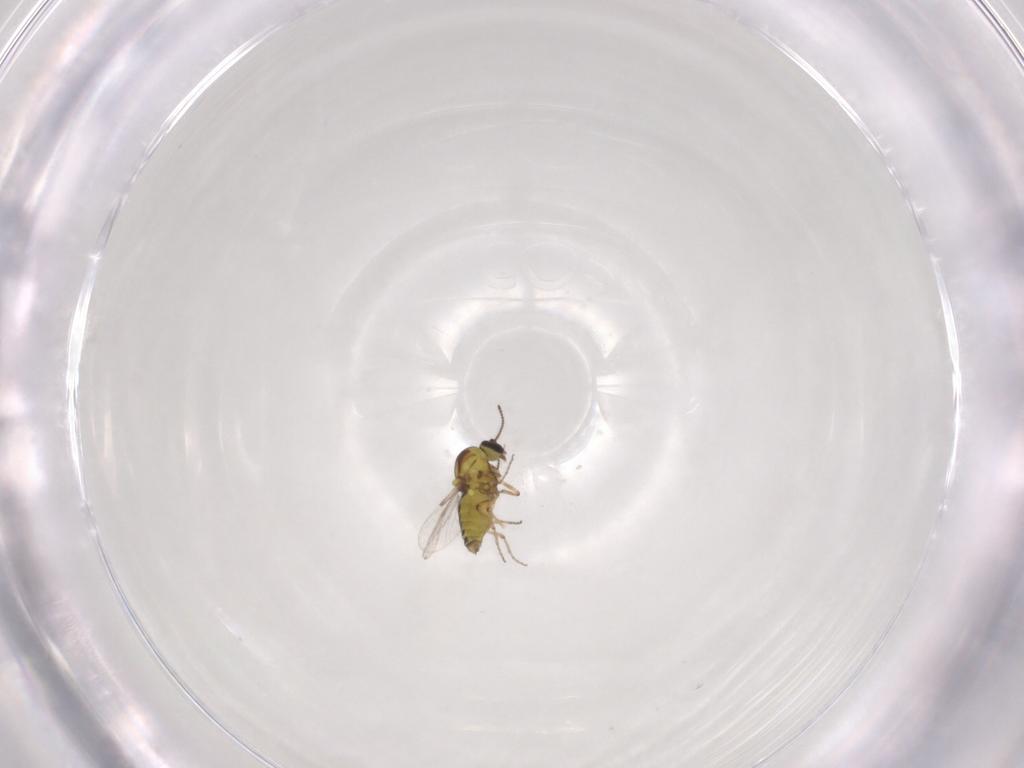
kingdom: Animalia
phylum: Arthropoda
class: Insecta
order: Diptera
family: Ceratopogonidae
